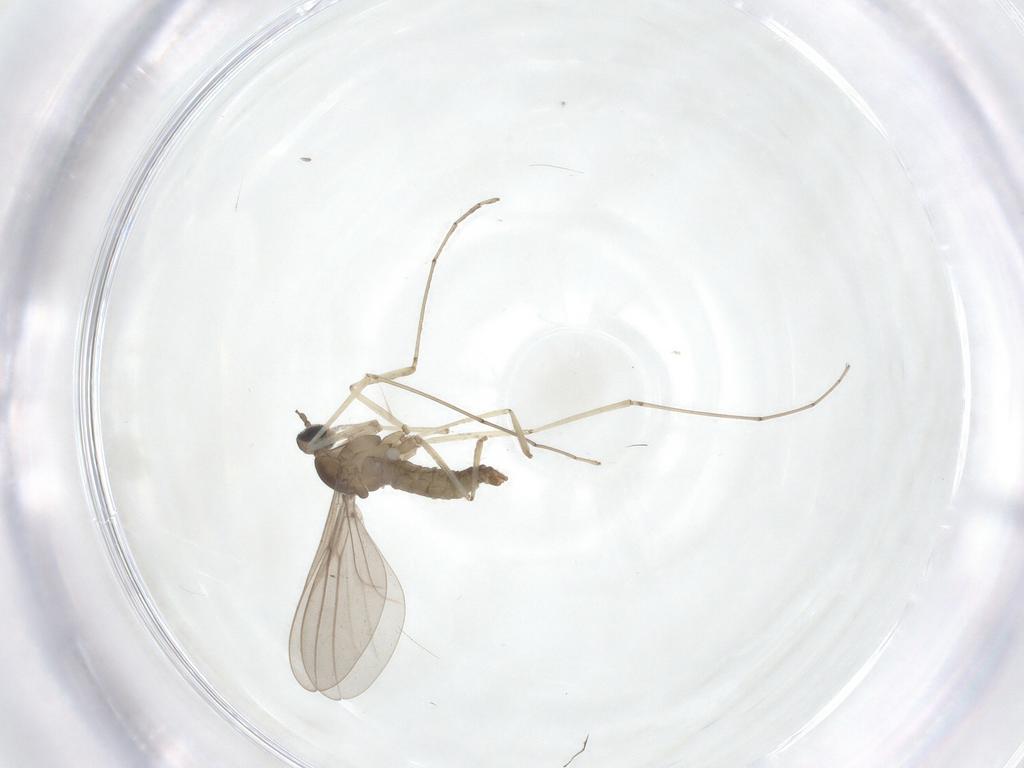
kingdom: Animalia
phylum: Arthropoda
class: Insecta
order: Diptera
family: Cecidomyiidae
